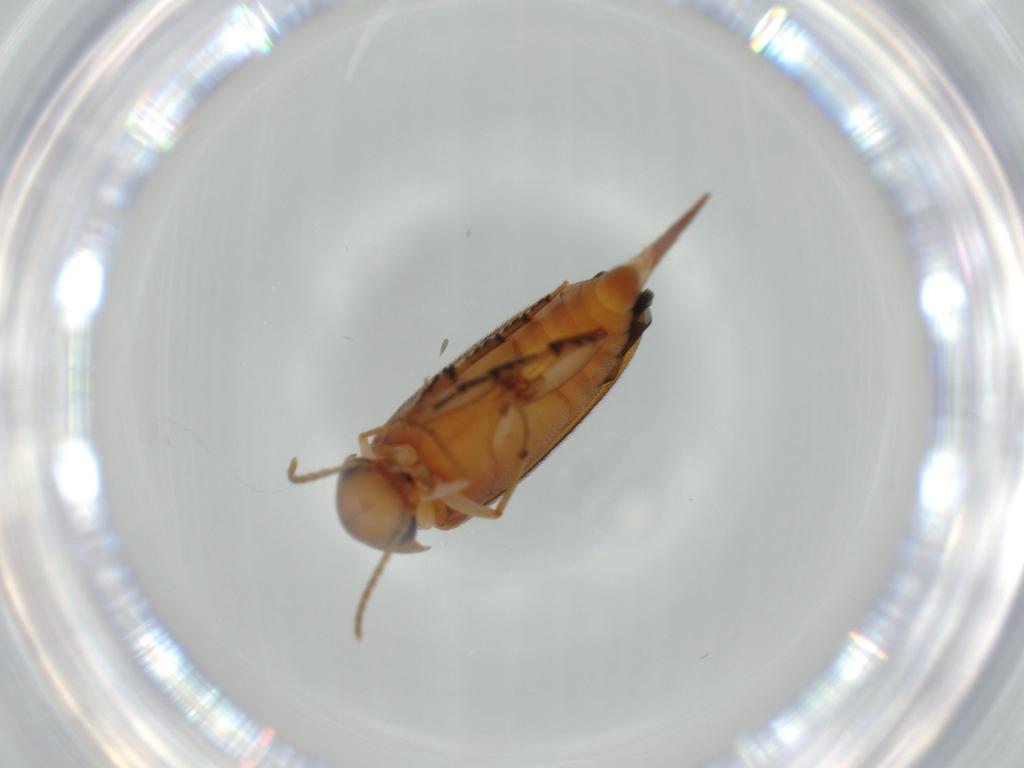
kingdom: Animalia
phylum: Arthropoda
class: Insecta
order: Coleoptera
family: Mordellidae
